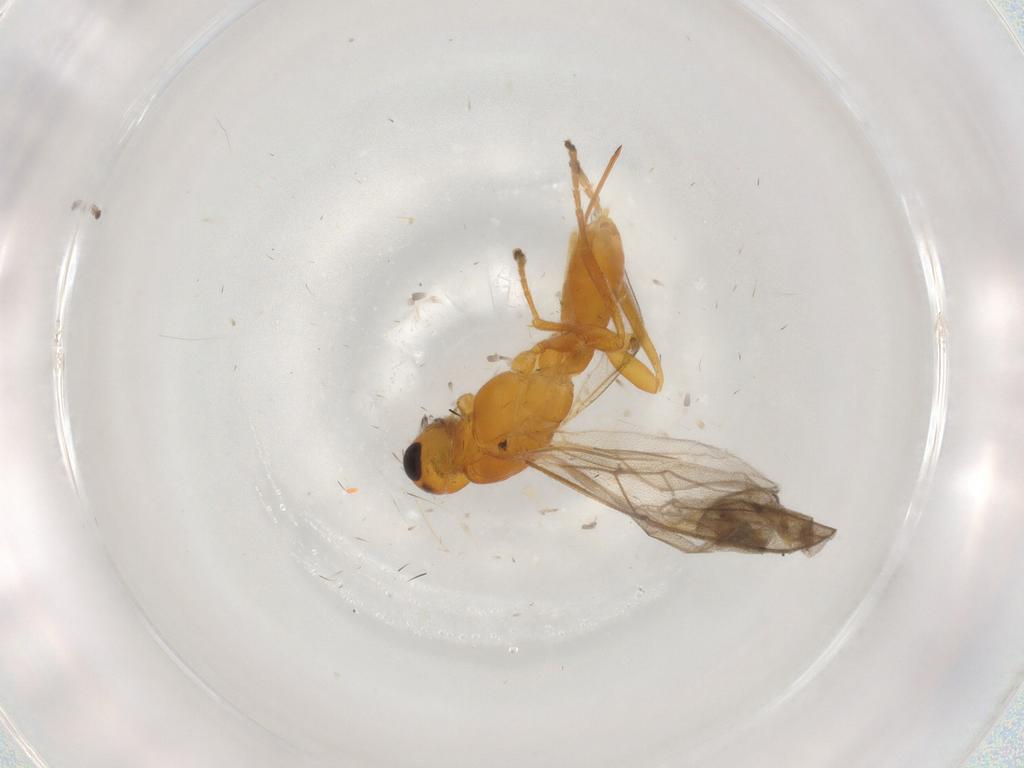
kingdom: Animalia
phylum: Arthropoda
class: Insecta
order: Hymenoptera
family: Braconidae
